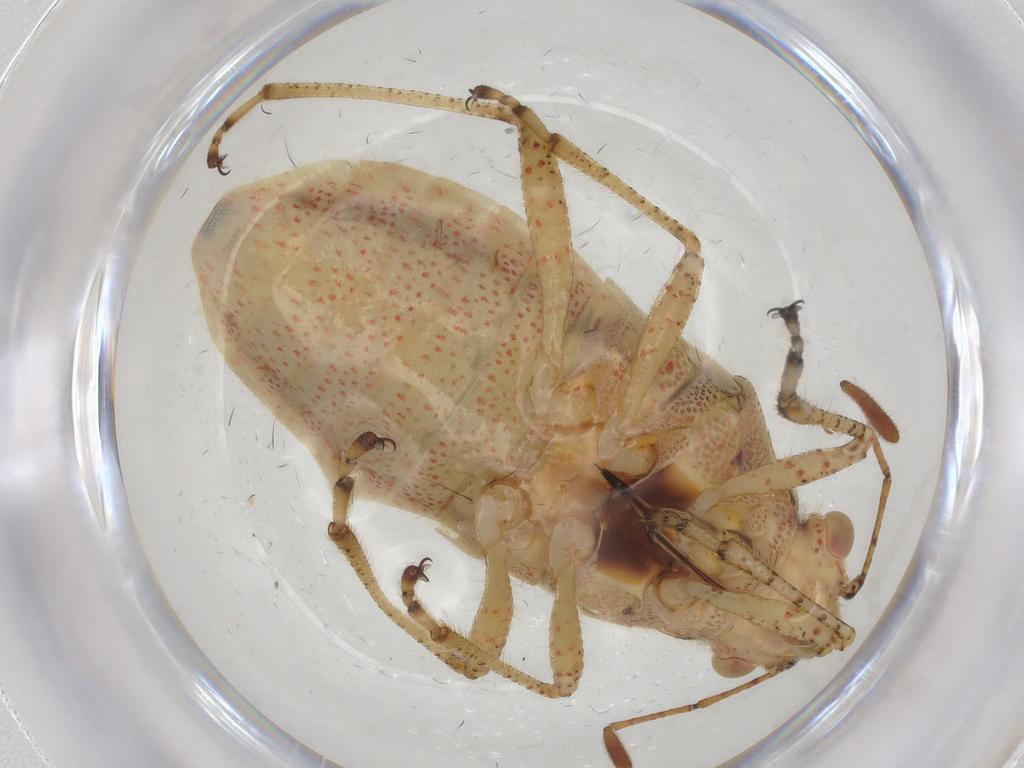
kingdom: Animalia
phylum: Arthropoda
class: Insecta
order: Hemiptera
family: Rhopalidae
